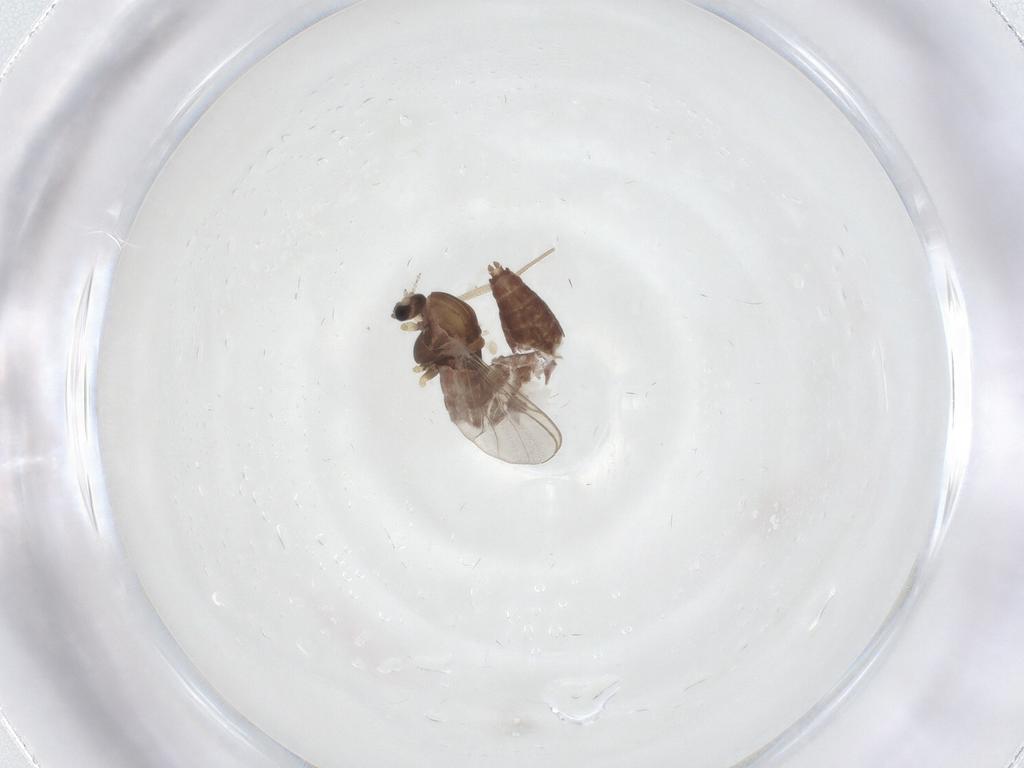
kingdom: Animalia
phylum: Arthropoda
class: Insecta
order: Diptera
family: Chironomidae
